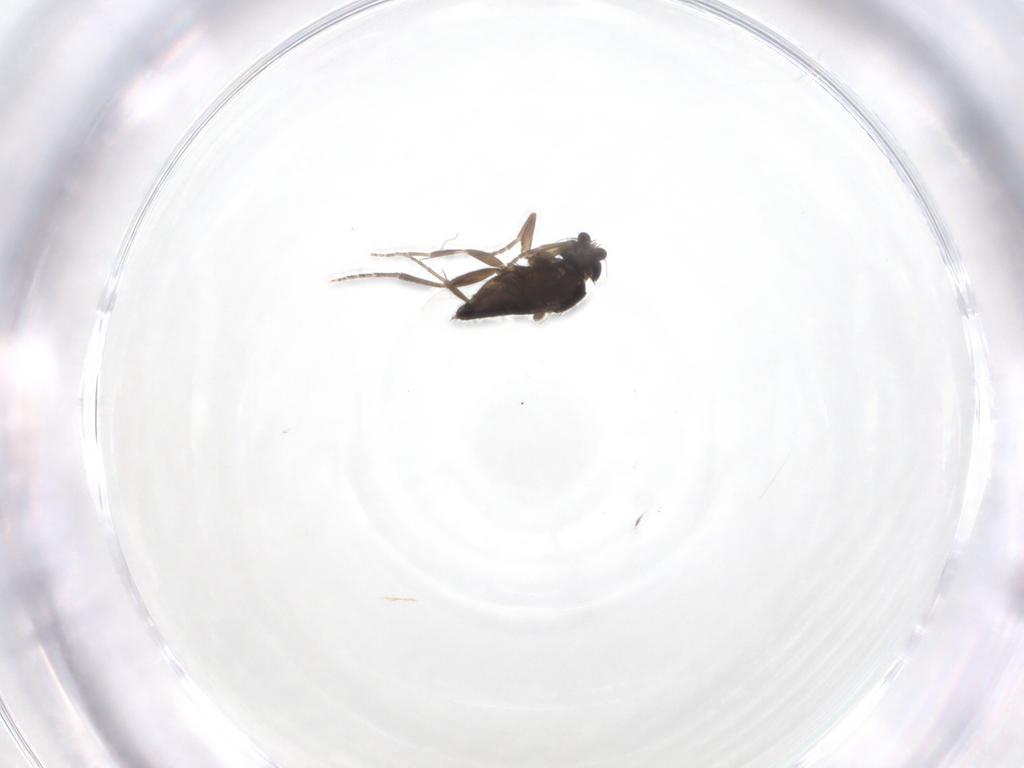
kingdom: Animalia
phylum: Arthropoda
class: Insecta
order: Diptera
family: Phoridae
